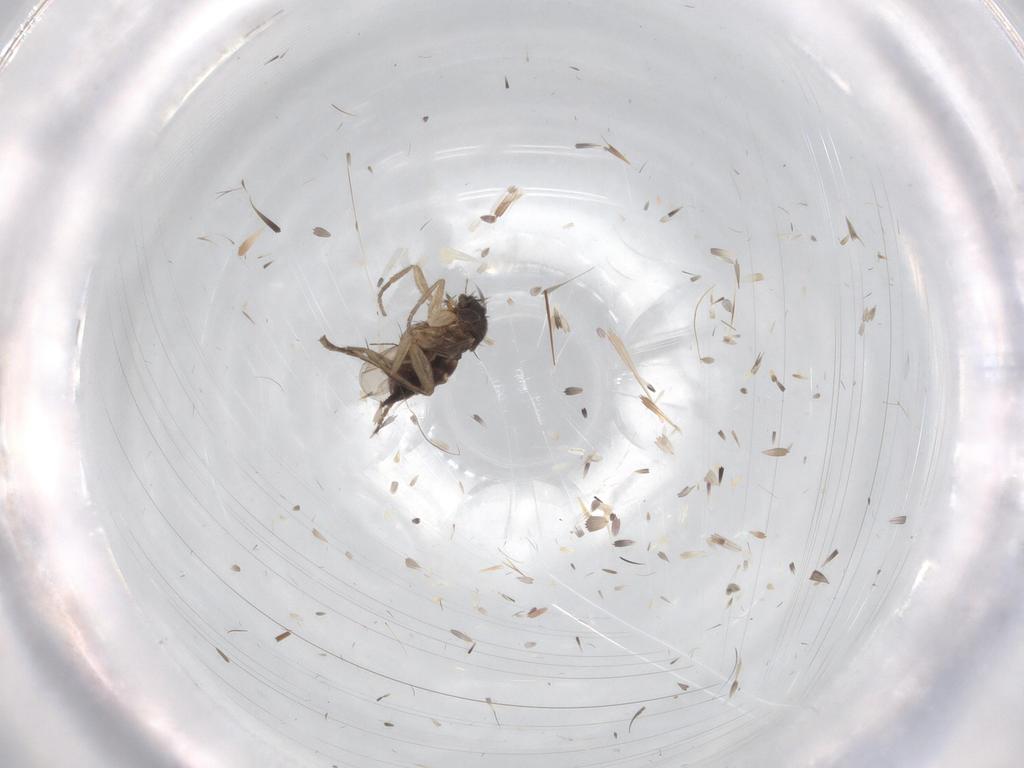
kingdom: Animalia
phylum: Arthropoda
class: Insecta
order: Diptera
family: Phoridae
